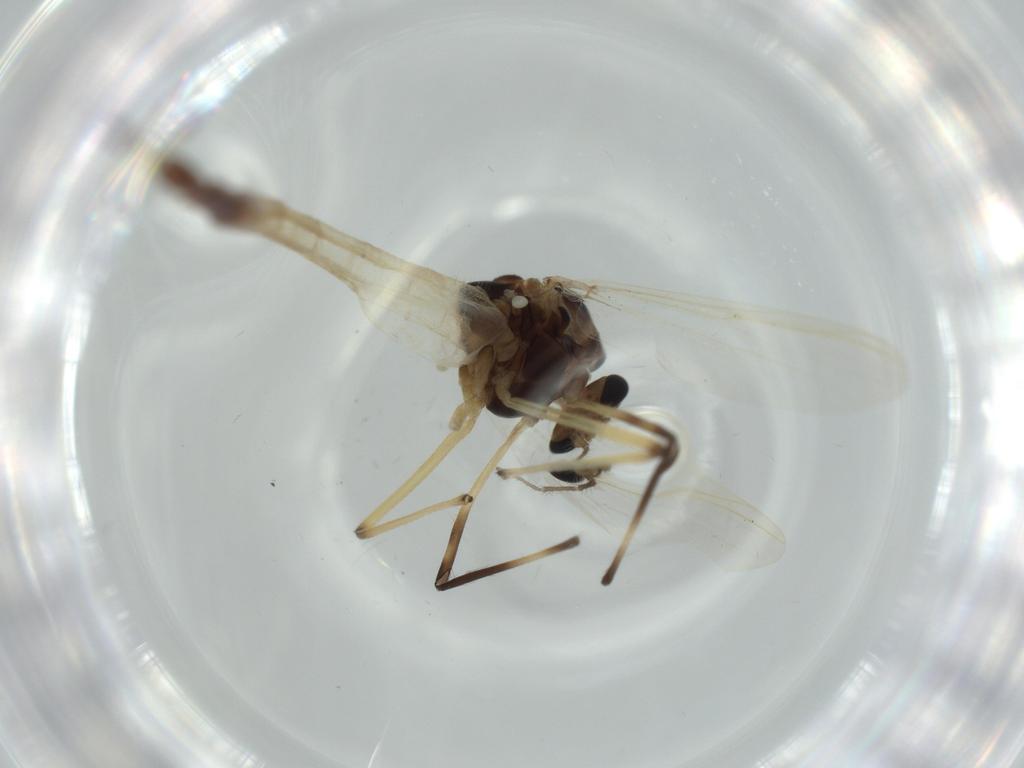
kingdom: Animalia
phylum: Arthropoda
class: Insecta
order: Diptera
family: Chironomidae
